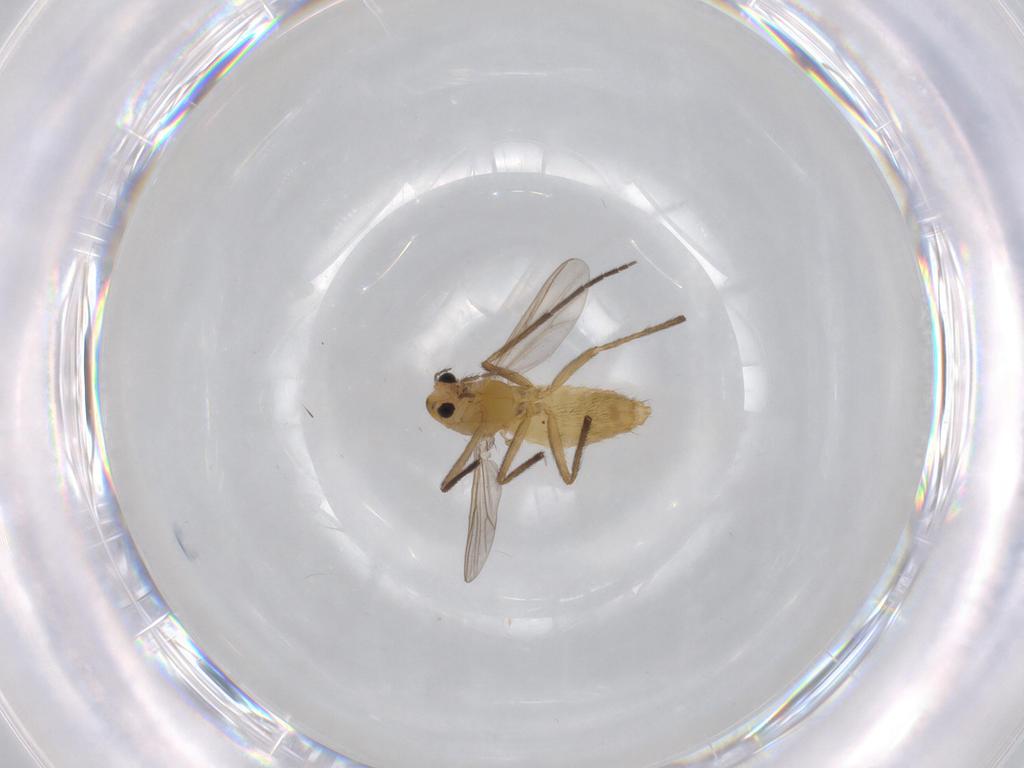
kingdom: Animalia
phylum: Arthropoda
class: Insecta
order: Diptera
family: Chironomidae
